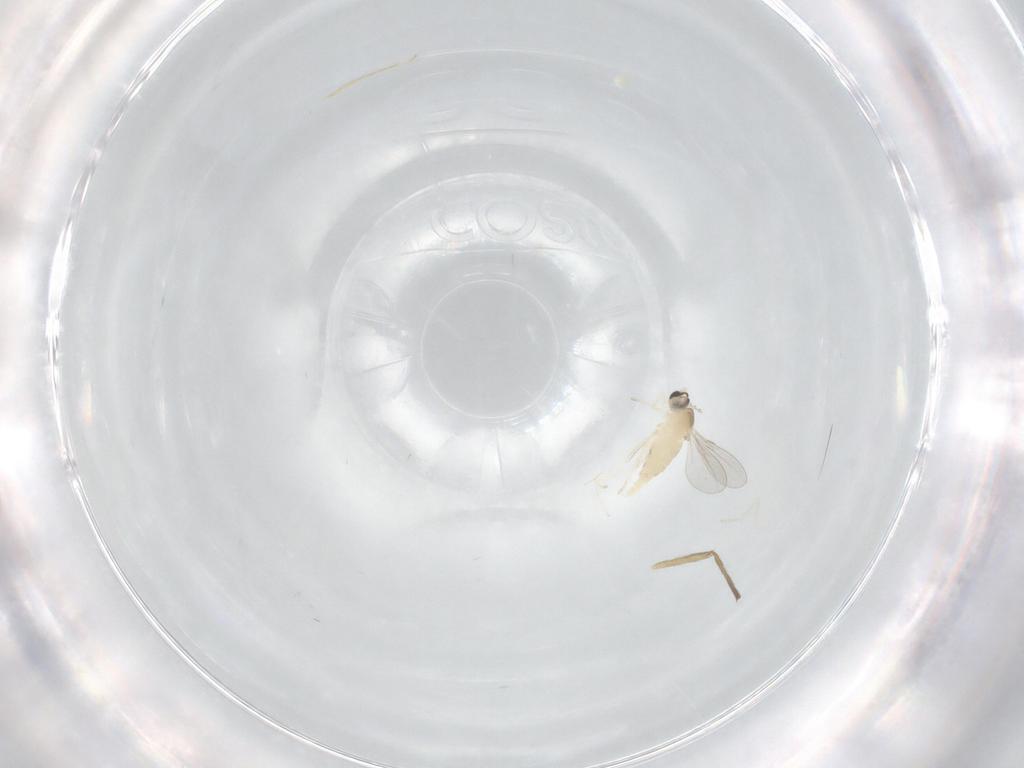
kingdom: Animalia
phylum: Arthropoda
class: Insecta
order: Diptera
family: Cecidomyiidae
